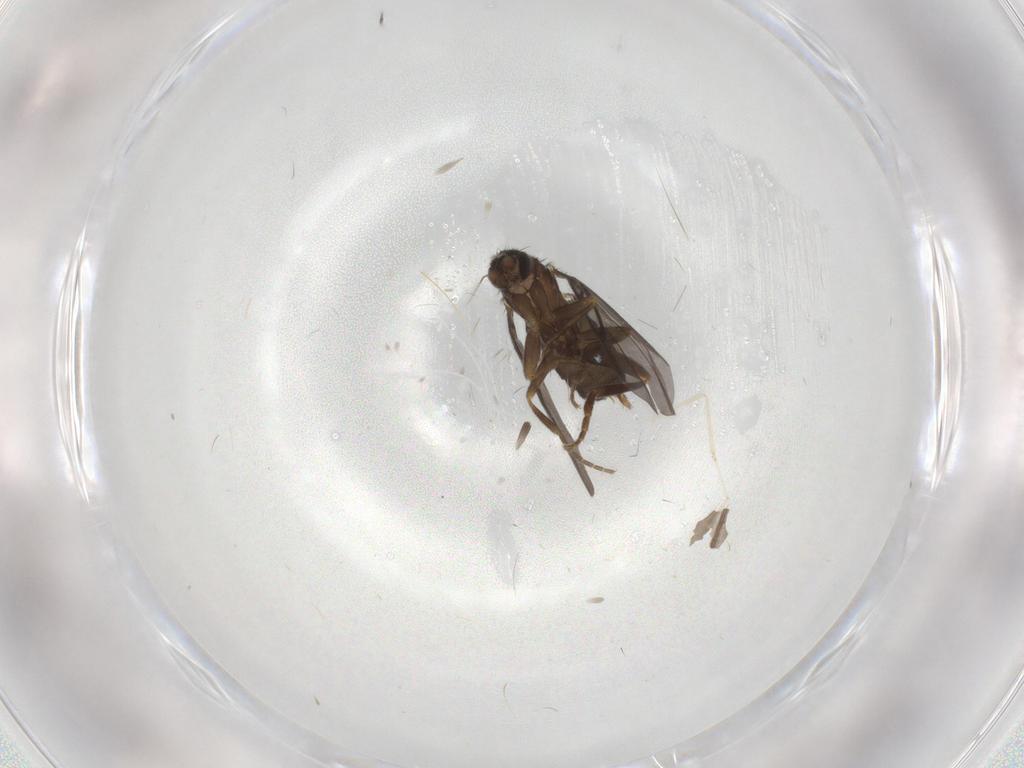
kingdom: Animalia
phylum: Arthropoda
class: Insecta
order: Diptera
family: Phoridae
